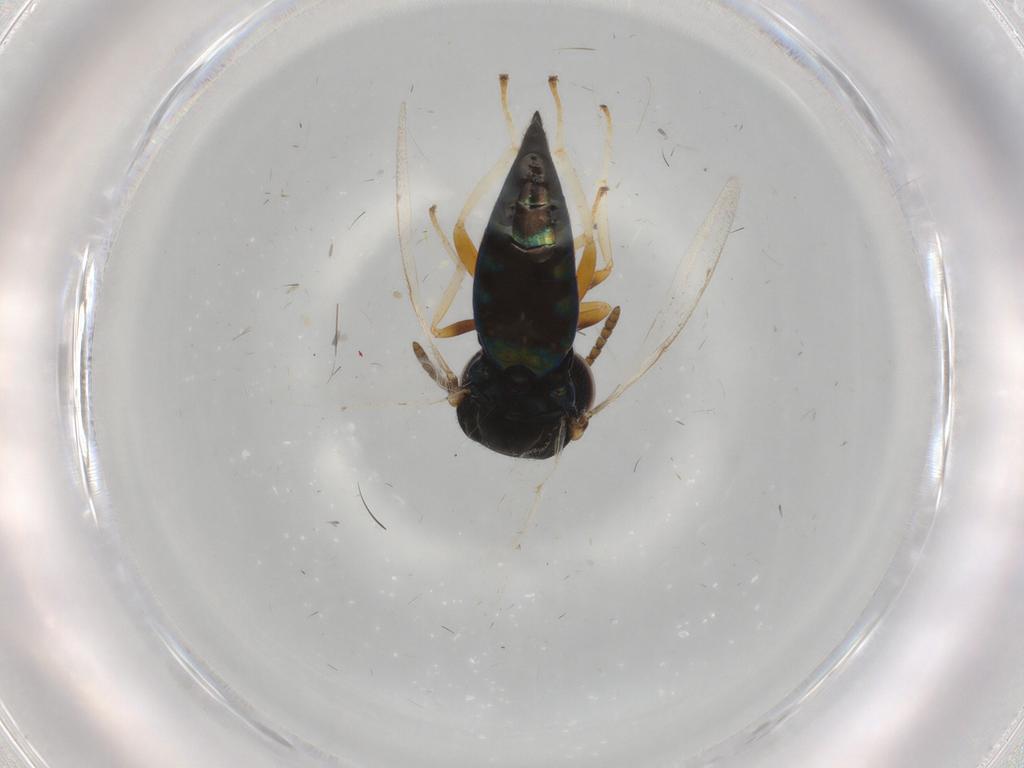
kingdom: Animalia
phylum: Arthropoda
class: Insecta
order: Hymenoptera
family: Pteromalidae
